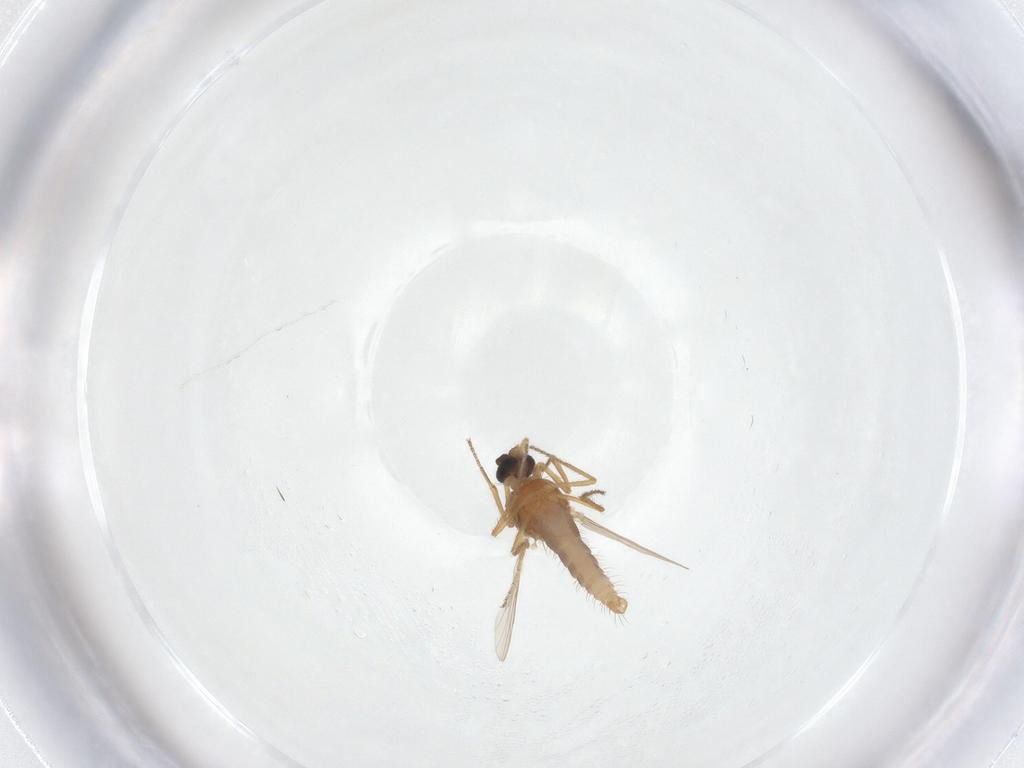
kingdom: Animalia
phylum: Arthropoda
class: Insecta
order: Diptera
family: Ceratopogonidae
